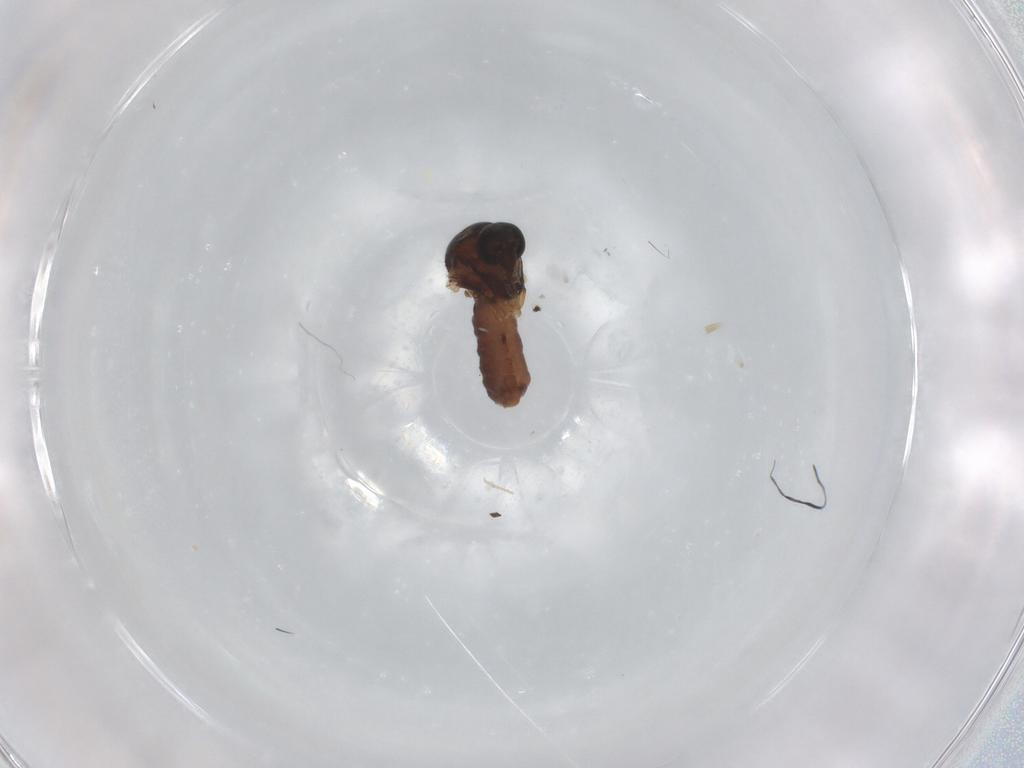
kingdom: Animalia
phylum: Arthropoda
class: Insecta
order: Diptera
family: Ceratopogonidae
